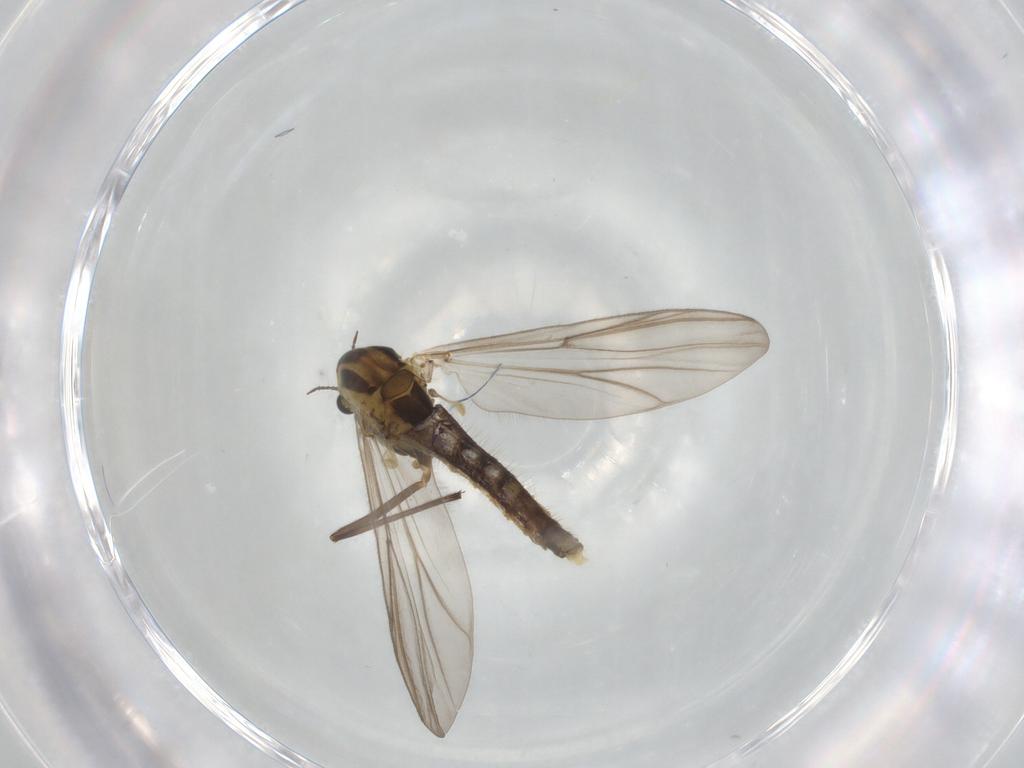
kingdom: Animalia
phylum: Arthropoda
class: Insecta
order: Diptera
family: Chironomidae
